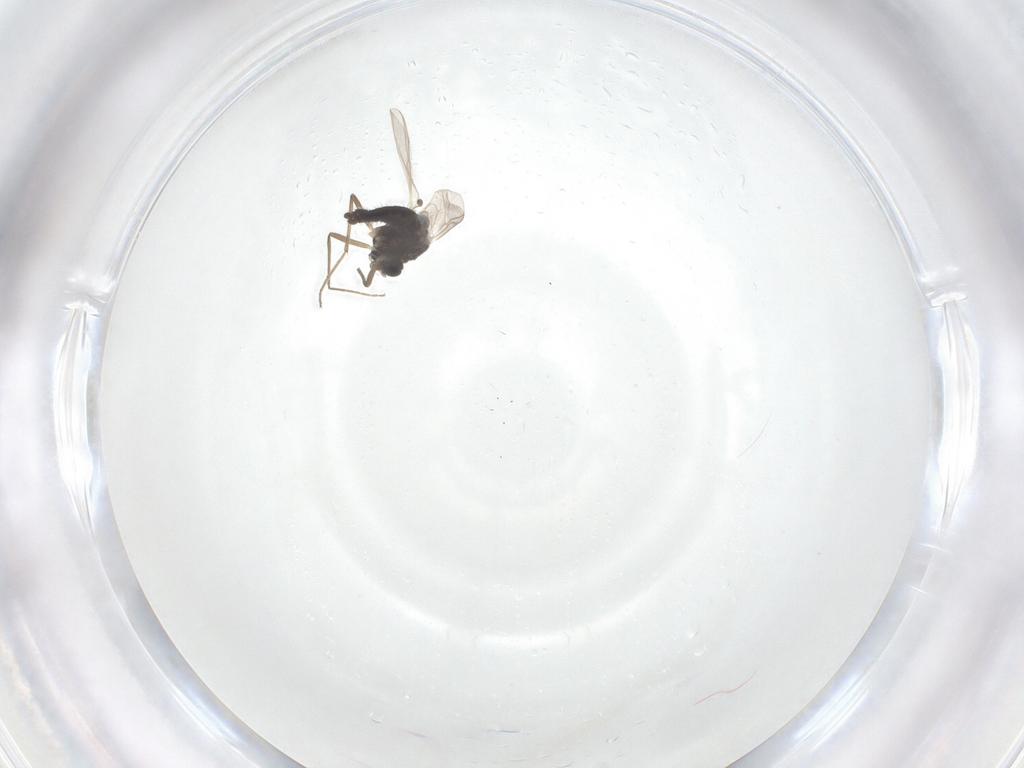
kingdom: Animalia
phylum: Arthropoda
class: Insecta
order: Diptera
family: Chironomidae
